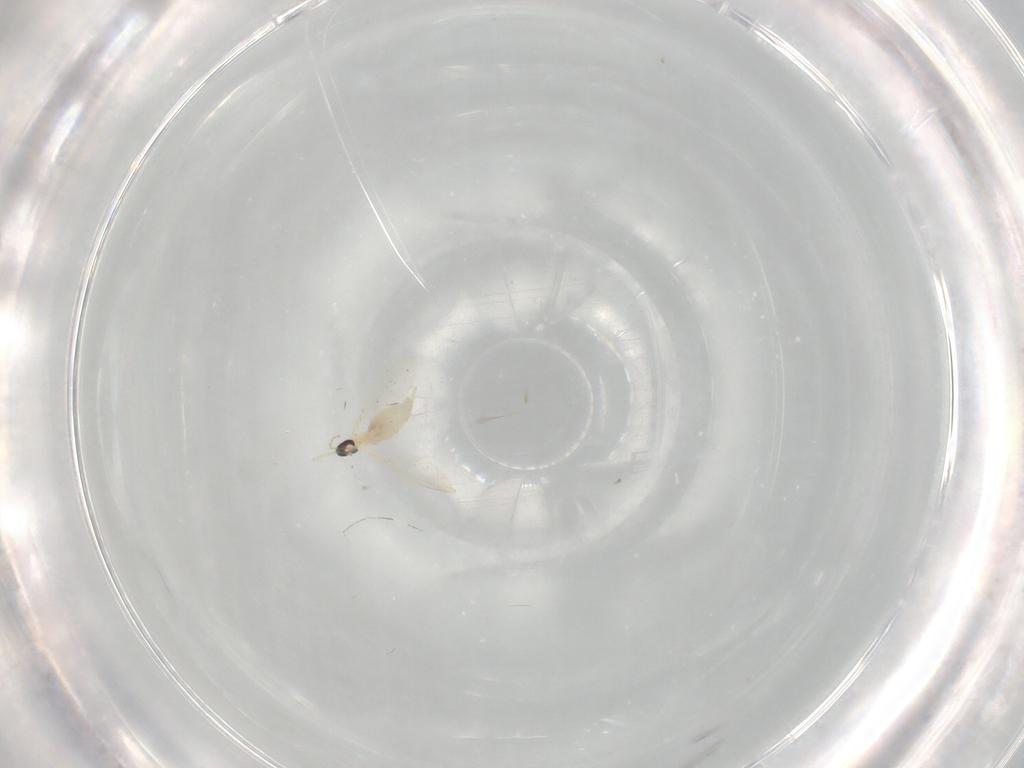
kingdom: Animalia
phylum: Arthropoda
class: Insecta
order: Diptera
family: Cecidomyiidae
